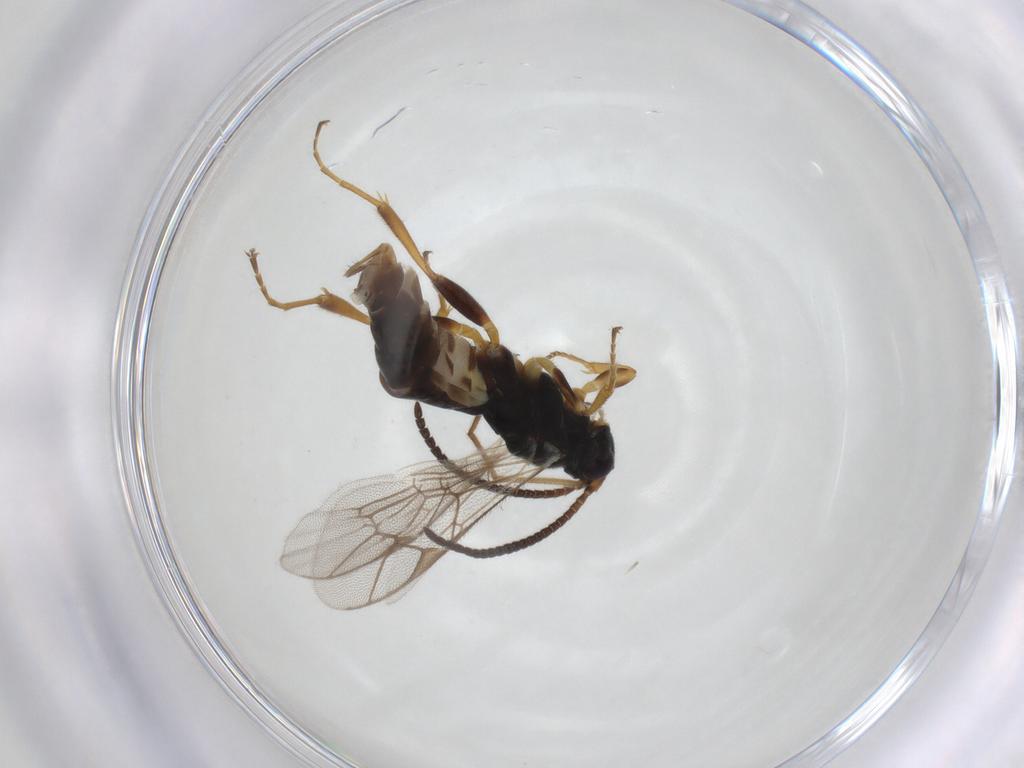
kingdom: Animalia
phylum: Arthropoda
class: Insecta
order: Hymenoptera
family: Ichneumonidae
